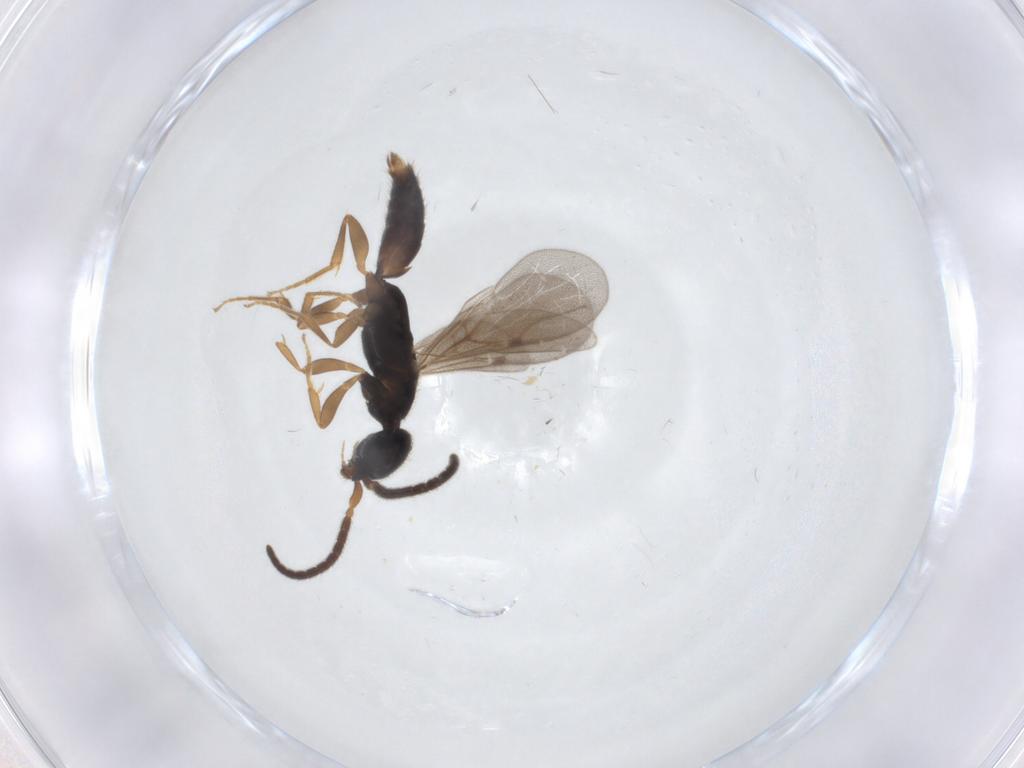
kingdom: Animalia
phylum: Arthropoda
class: Insecta
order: Hymenoptera
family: Bethylidae
